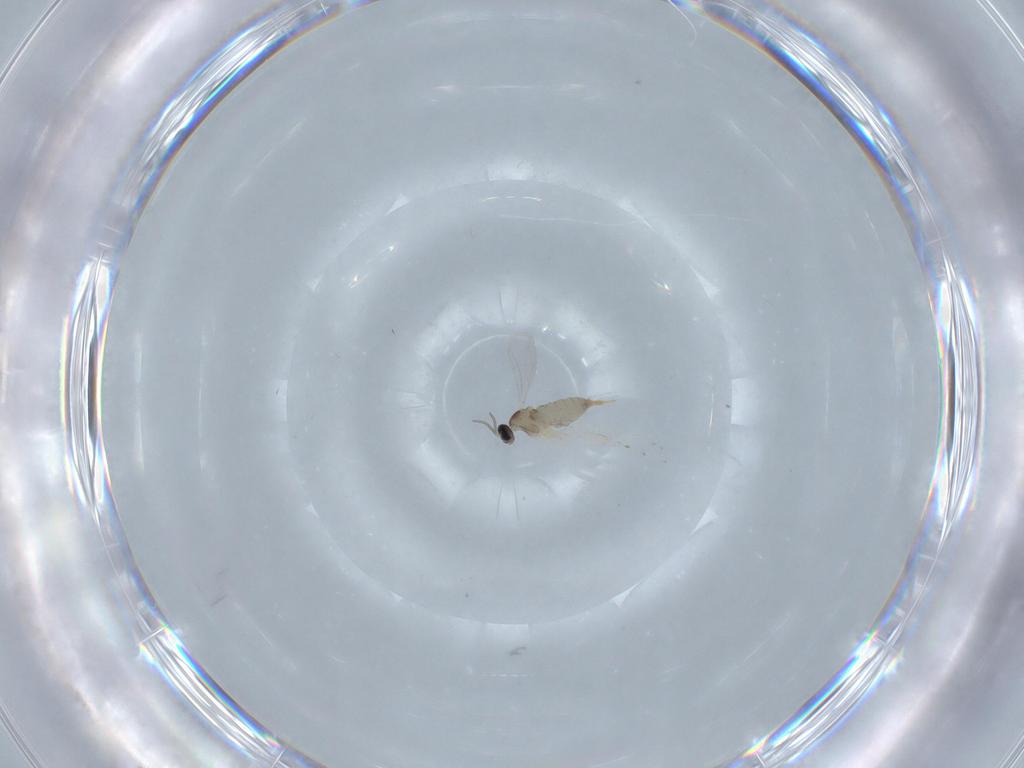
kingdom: Animalia
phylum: Arthropoda
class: Insecta
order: Diptera
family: Cecidomyiidae
